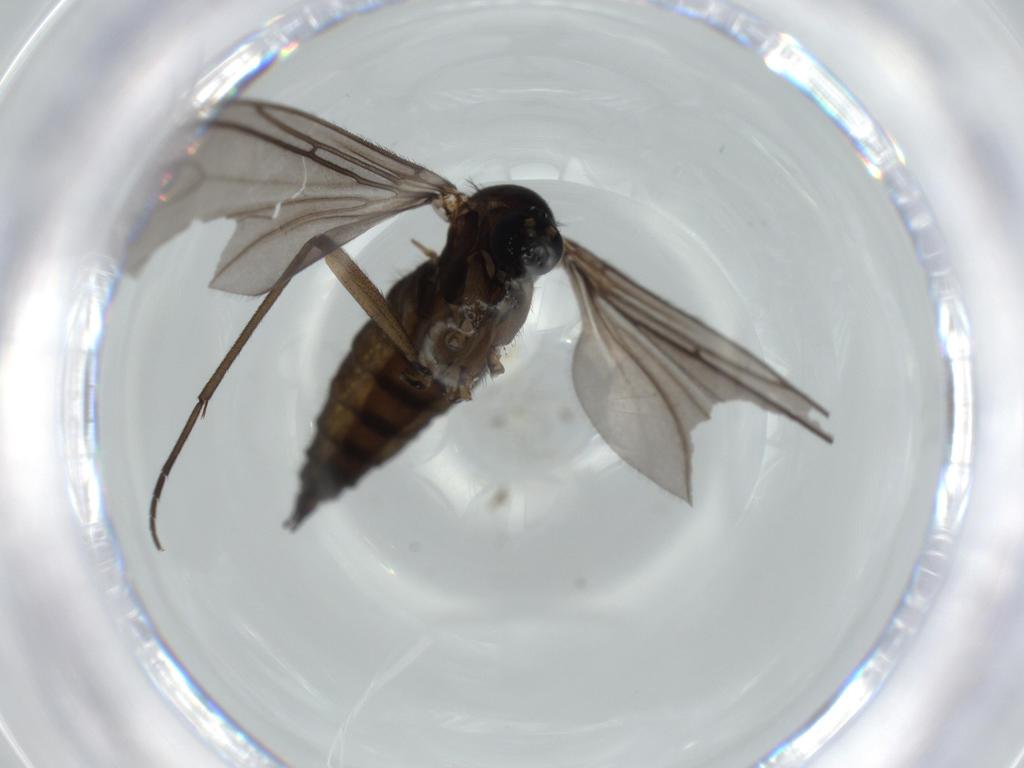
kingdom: Animalia
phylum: Arthropoda
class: Insecta
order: Diptera
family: Sciaridae
